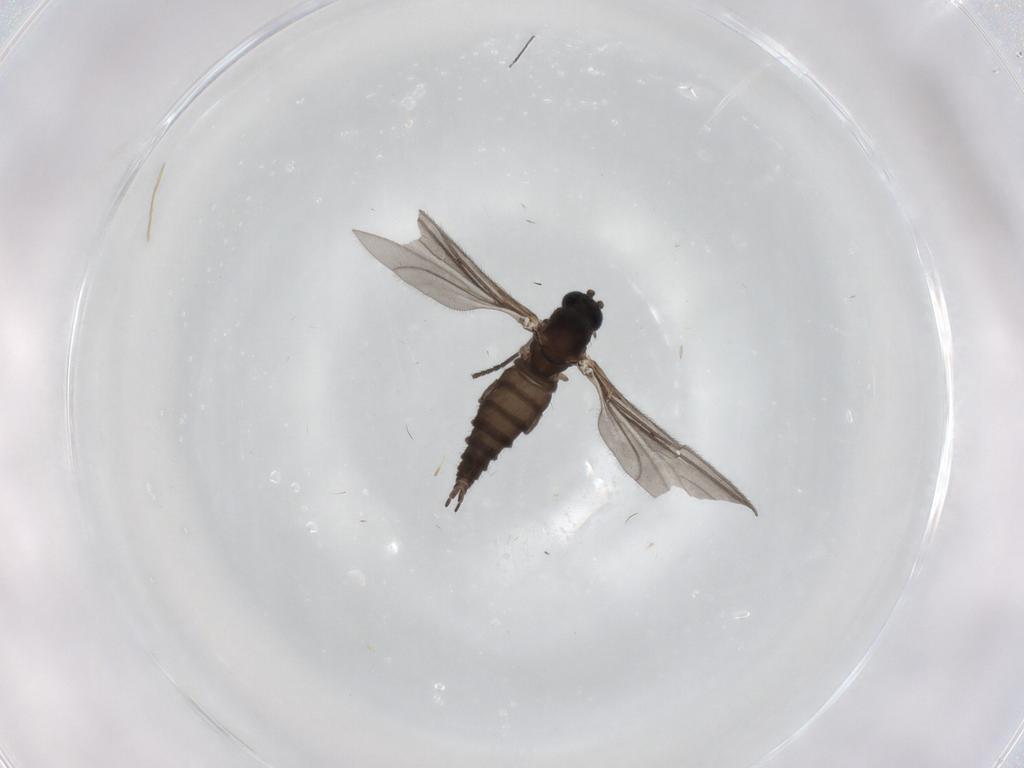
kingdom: Animalia
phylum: Arthropoda
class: Insecta
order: Diptera
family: Sciaridae
